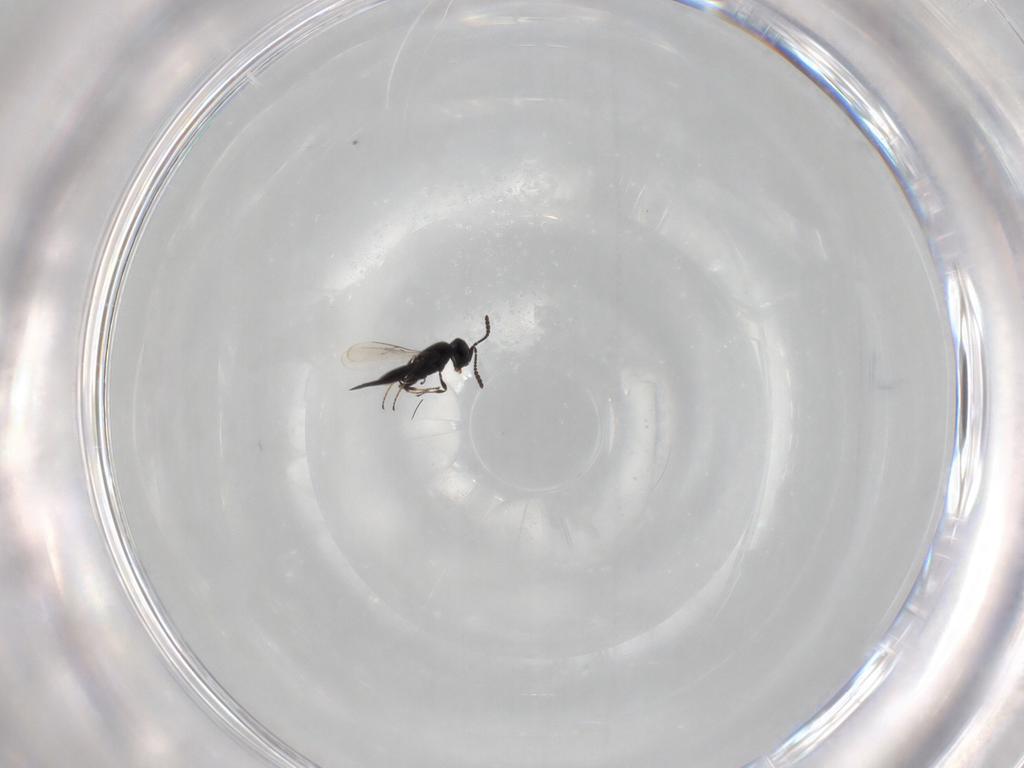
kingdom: Animalia
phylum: Arthropoda
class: Insecta
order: Hymenoptera
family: Scelionidae
